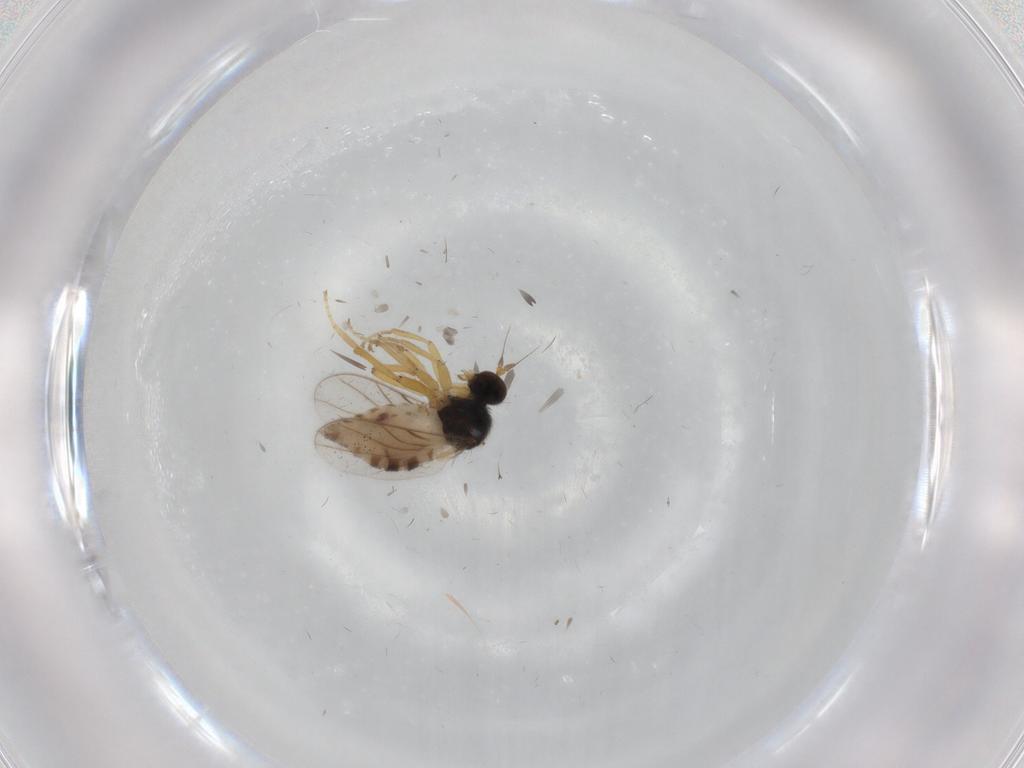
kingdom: Animalia
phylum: Arthropoda
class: Insecta
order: Diptera
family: Hybotidae
